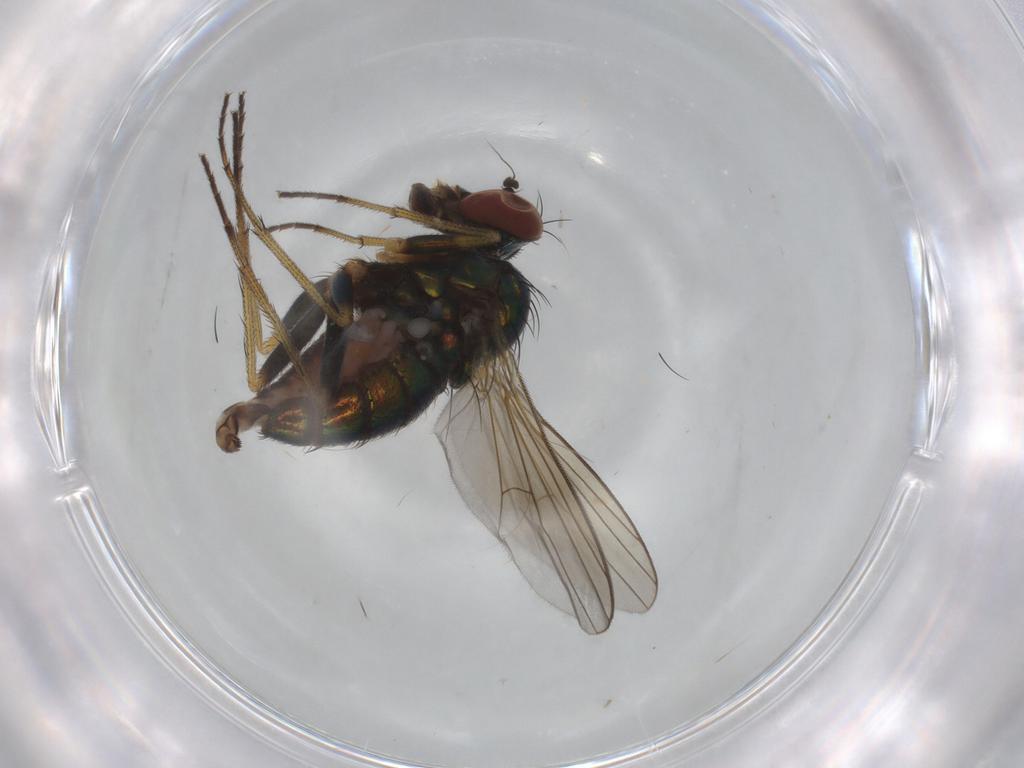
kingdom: Animalia
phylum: Arthropoda
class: Insecta
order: Diptera
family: Dolichopodidae
